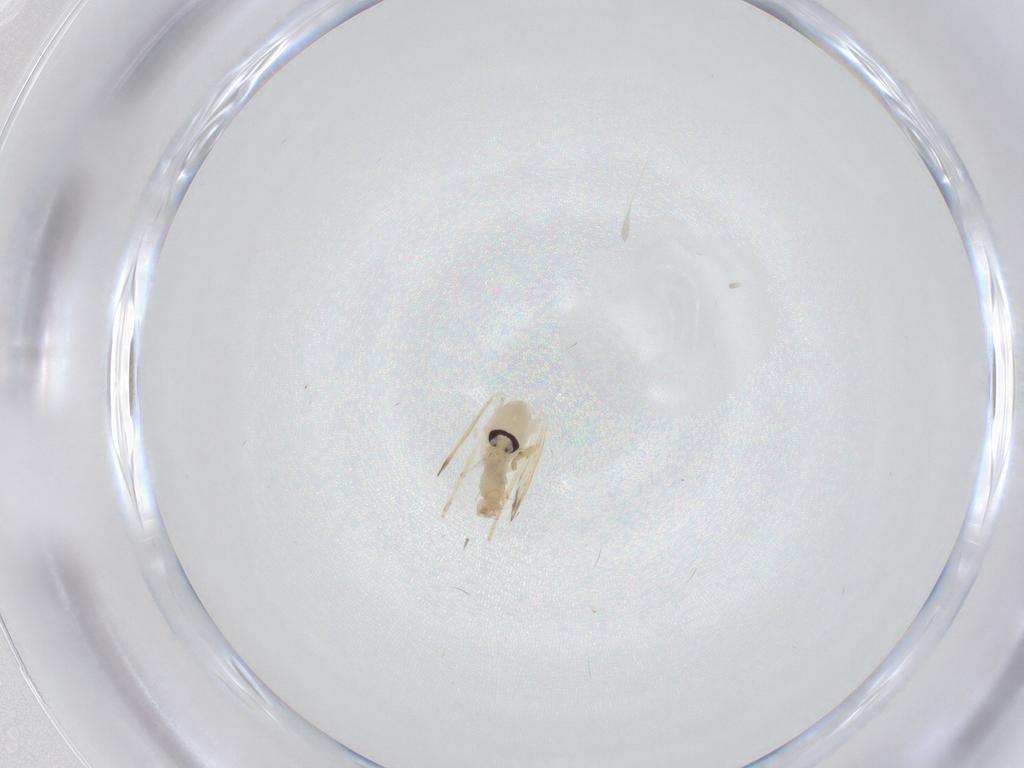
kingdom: Animalia
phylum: Arthropoda
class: Insecta
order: Diptera
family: Psychodidae
